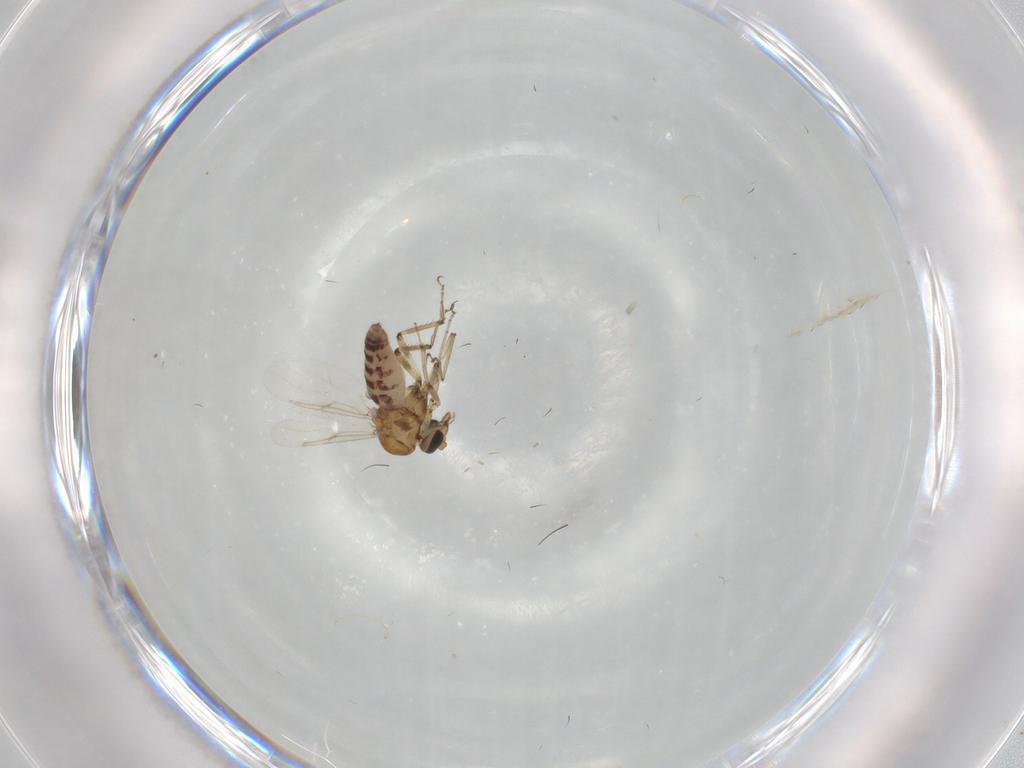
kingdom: Animalia
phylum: Arthropoda
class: Insecta
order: Diptera
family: Ceratopogonidae
